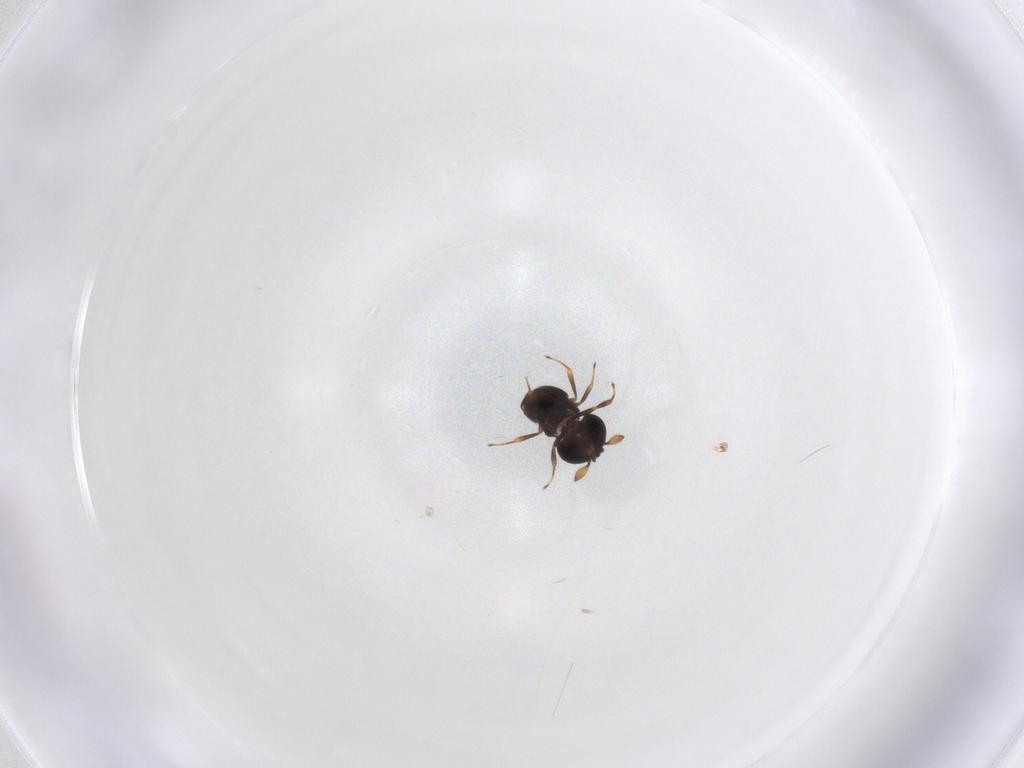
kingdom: Animalia
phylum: Arthropoda
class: Insecta
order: Hymenoptera
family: Scelionidae
